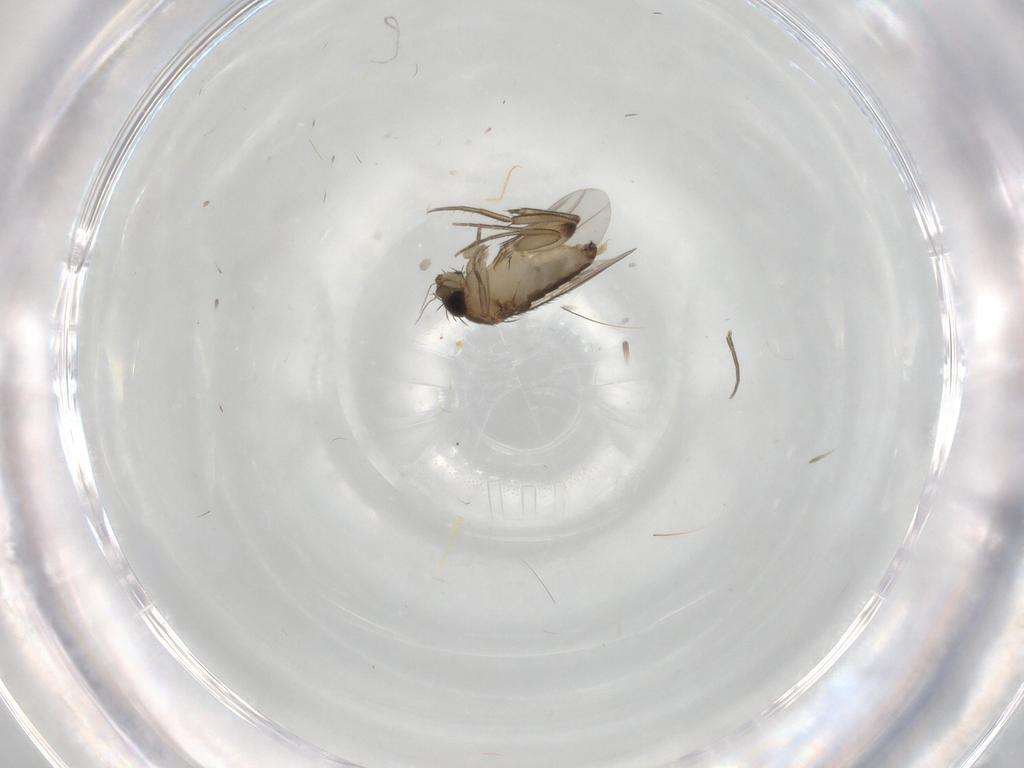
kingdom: Animalia
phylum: Arthropoda
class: Insecta
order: Diptera
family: Phoridae
